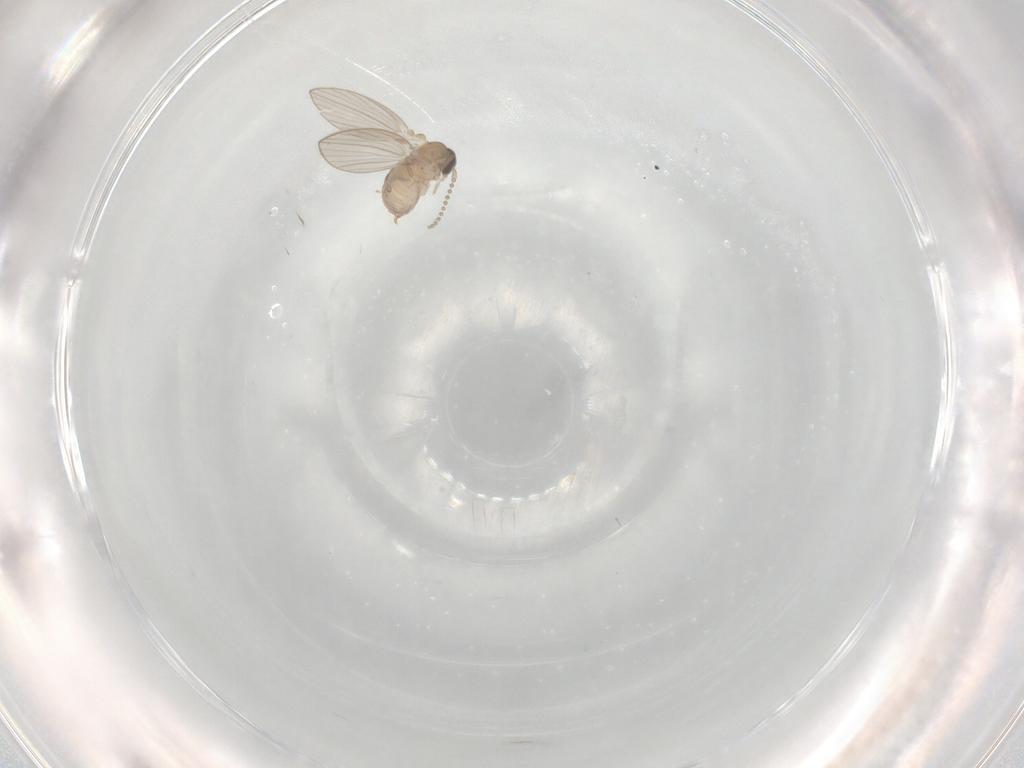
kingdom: Animalia
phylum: Arthropoda
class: Insecta
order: Diptera
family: Psychodidae
